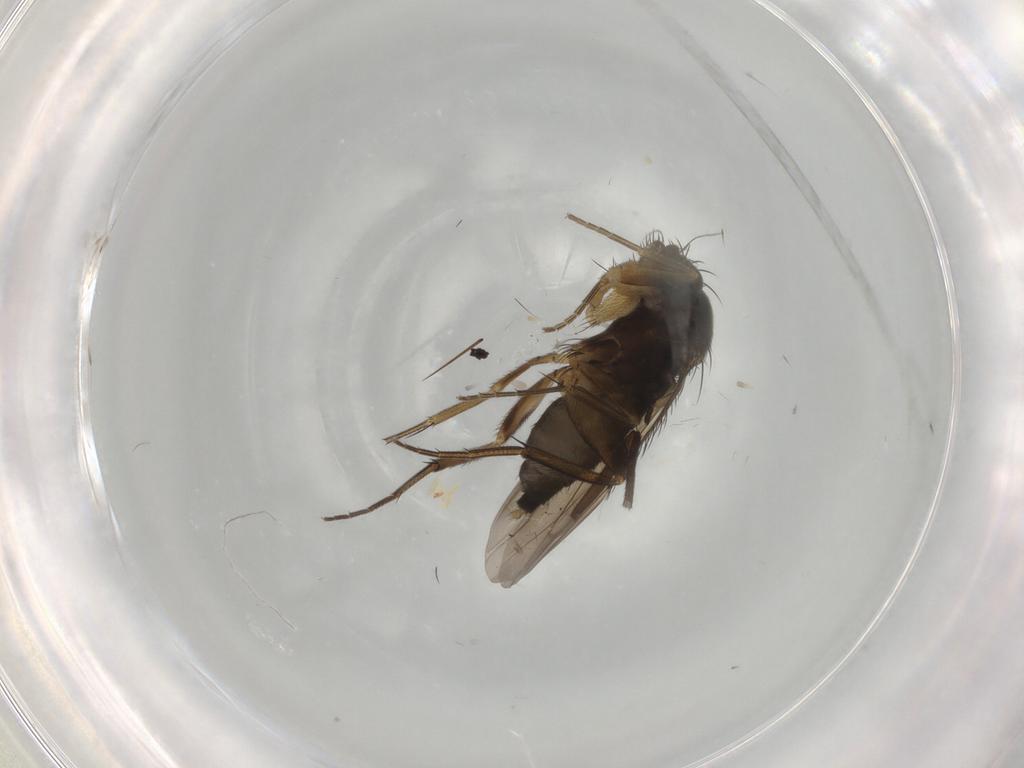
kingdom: Animalia
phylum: Arthropoda
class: Insecta
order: Diptera
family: Phoridae
